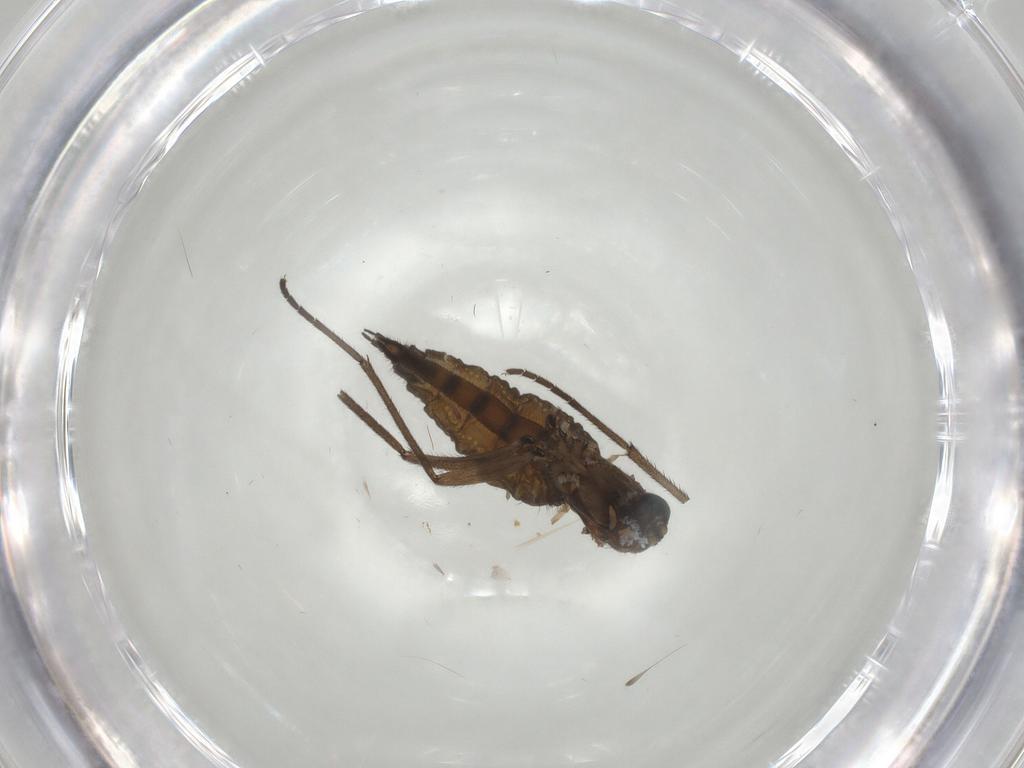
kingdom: Animalia
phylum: Arthropoda
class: Insecta
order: Diptera
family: Sciaridae
